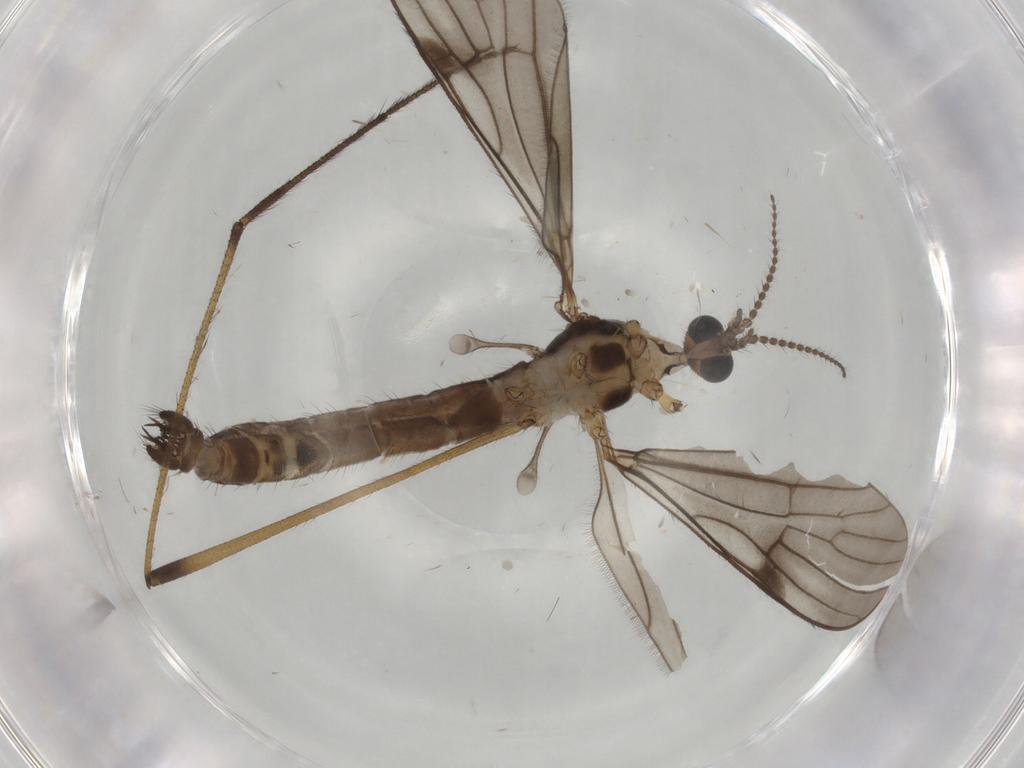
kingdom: Animalia
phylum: Arthropoda
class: Insecta
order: Diptera
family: Limoniidae
